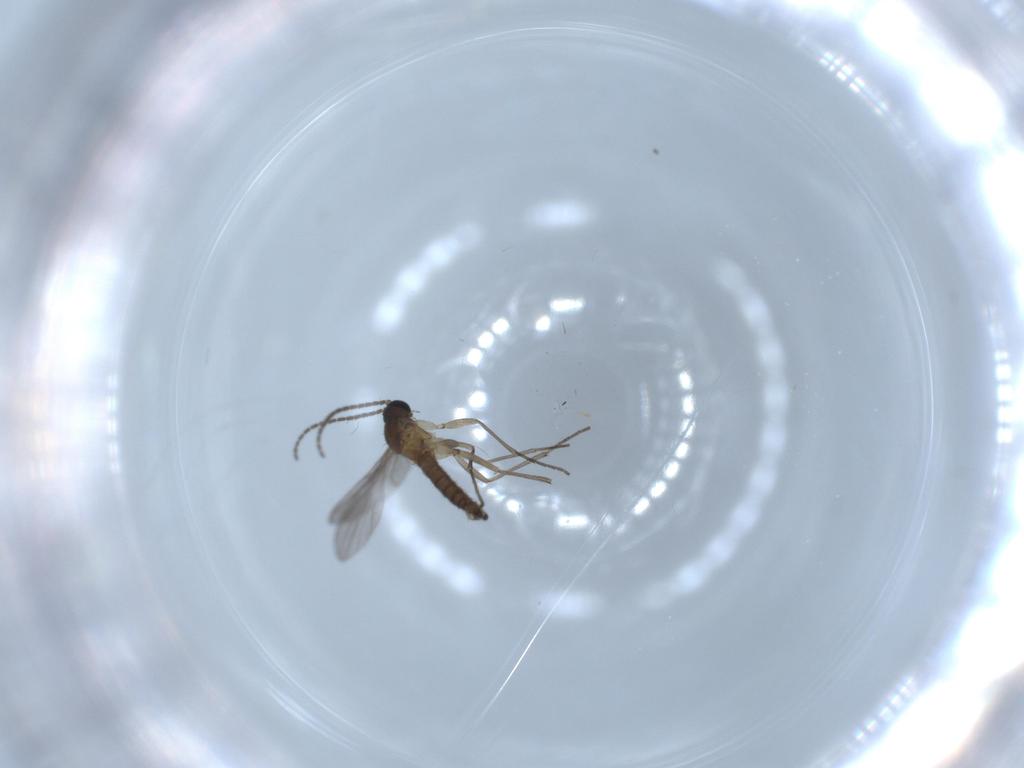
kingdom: Animalia
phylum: Arthropoda
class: Insecta
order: Diptera
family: Sciaridae
